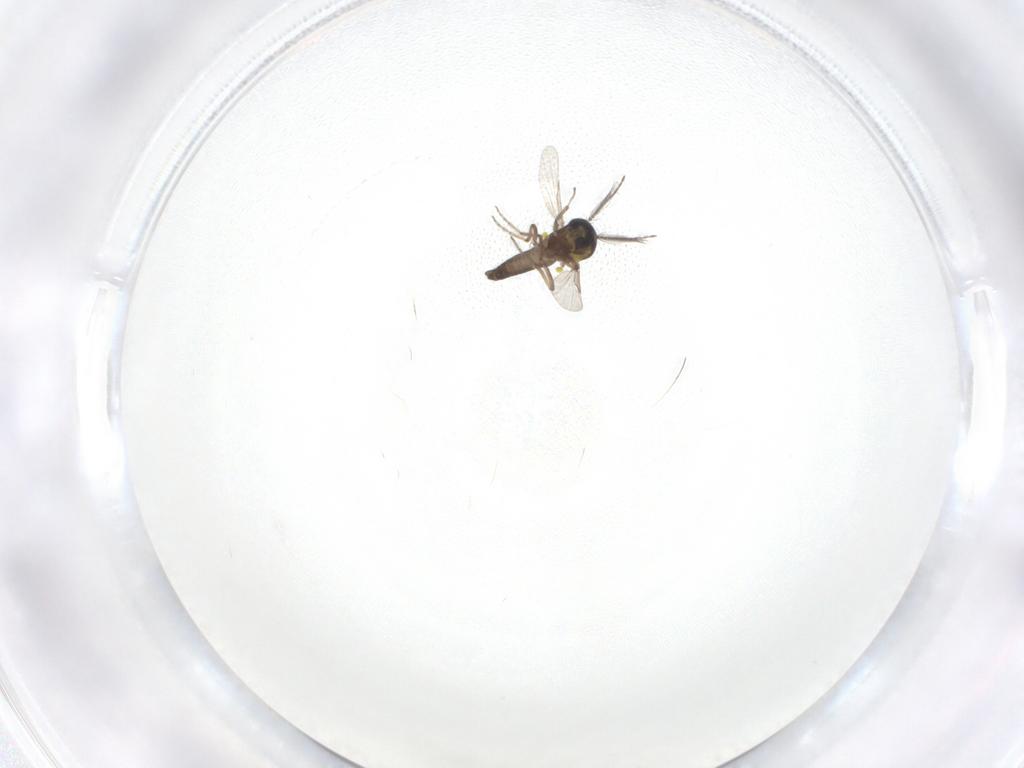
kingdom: Animalia
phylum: Arthropoda
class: Insecta
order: Diptera
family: Ceratopogonidae
